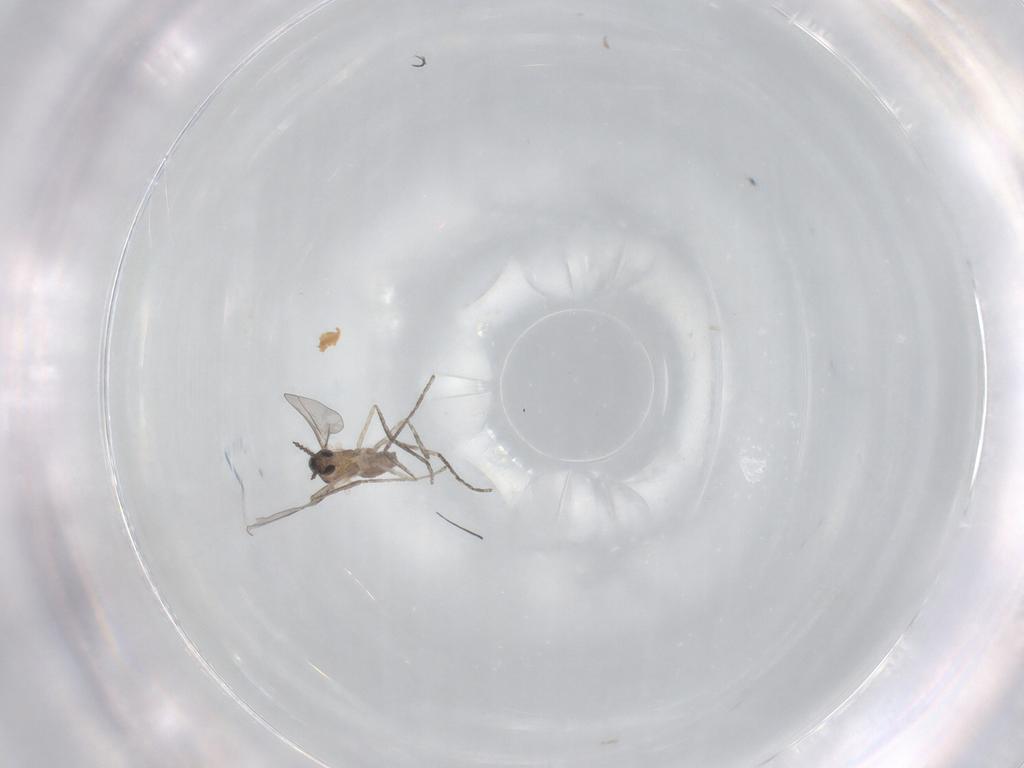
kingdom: Animalia
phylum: Arthropoda
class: Insecta
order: Diptera
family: Cecidomyiidae
